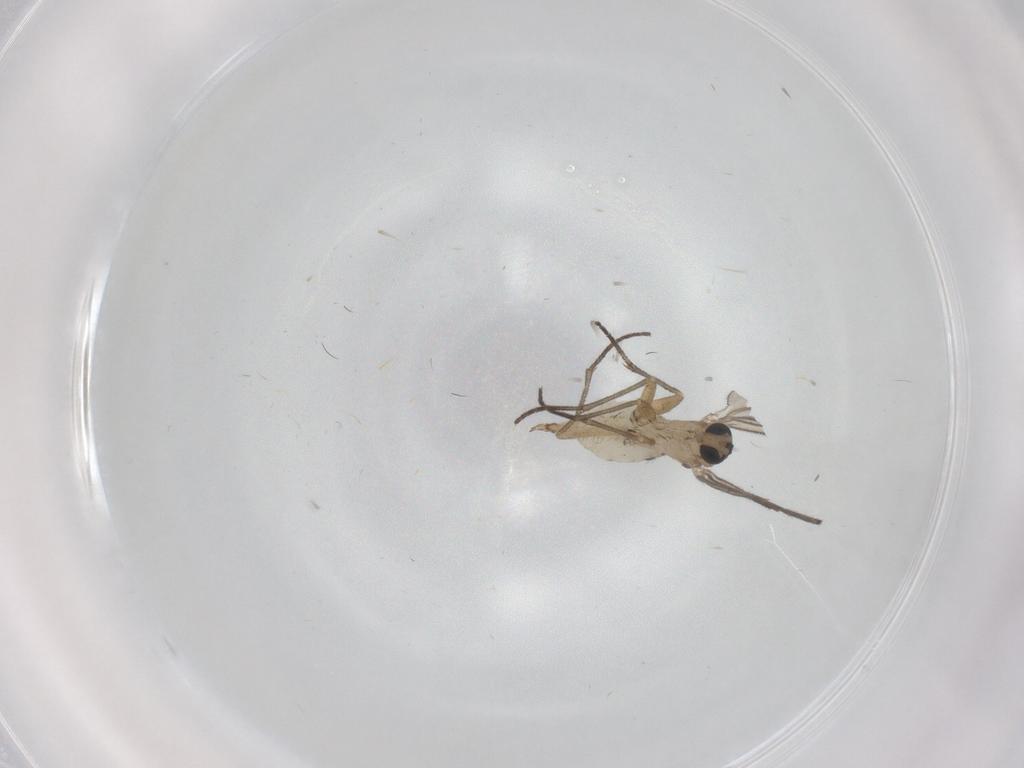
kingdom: Animalia
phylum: Arthropoda
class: Insecta
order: Diptera
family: Sciaridae
